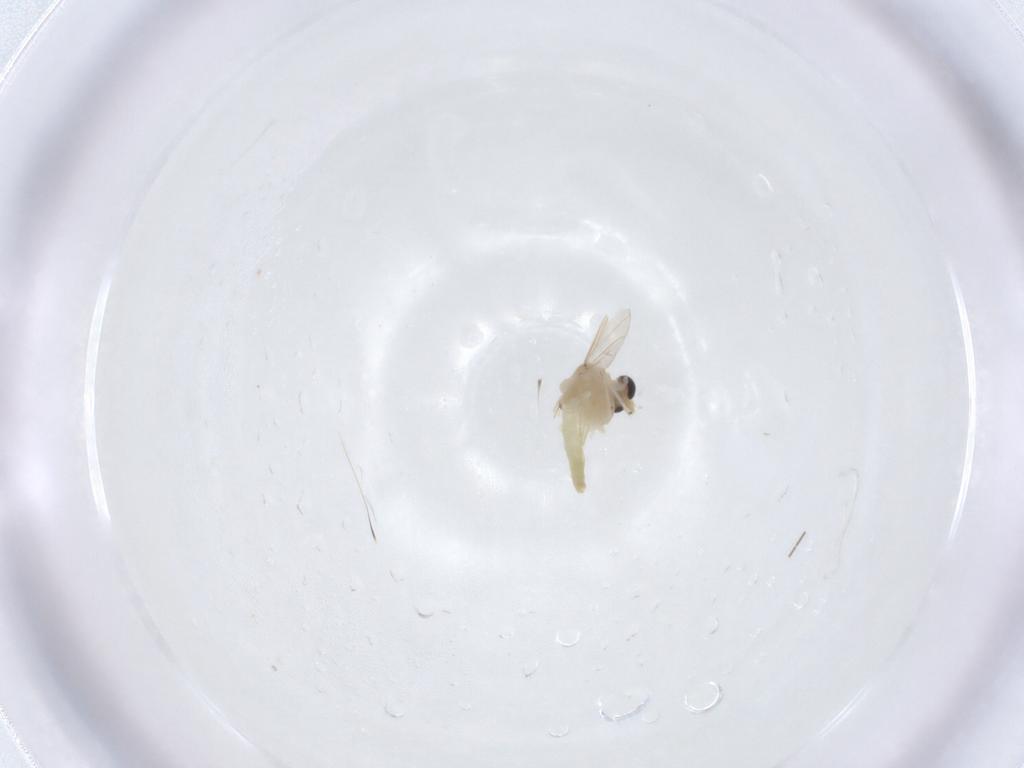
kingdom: Animalia
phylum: Arthropoda
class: Insecta
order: Diptera
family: Chironomidae
